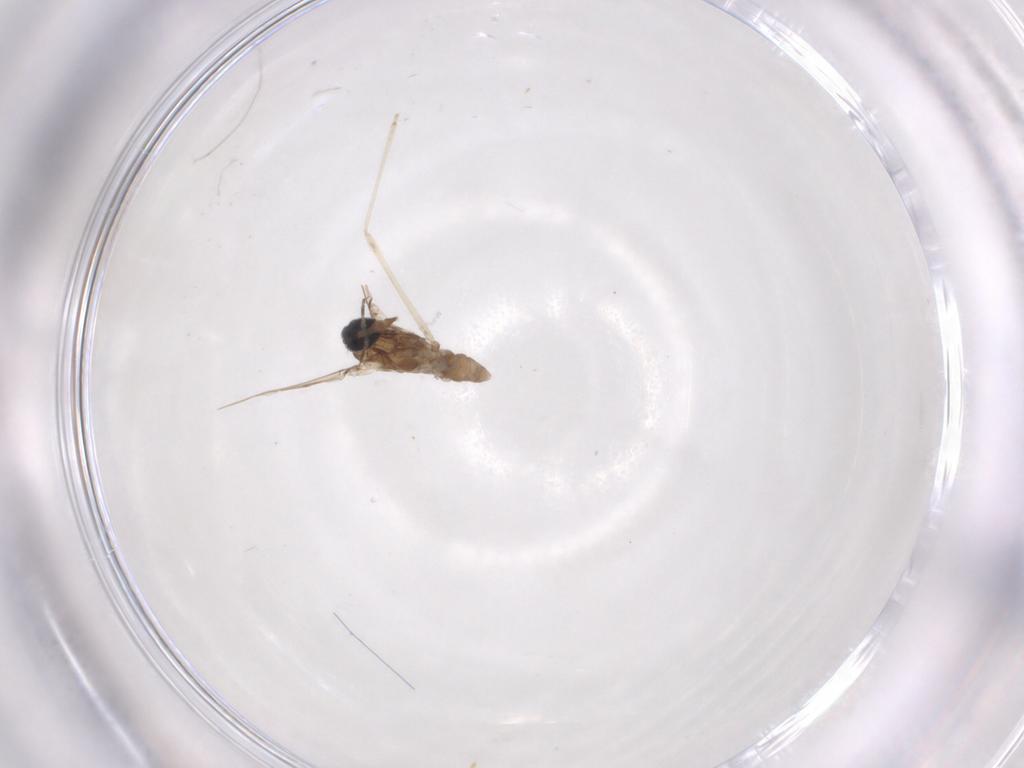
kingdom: Animalia
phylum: Arthropoda
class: Insecta
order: Diptera
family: Cecidomyiidae
